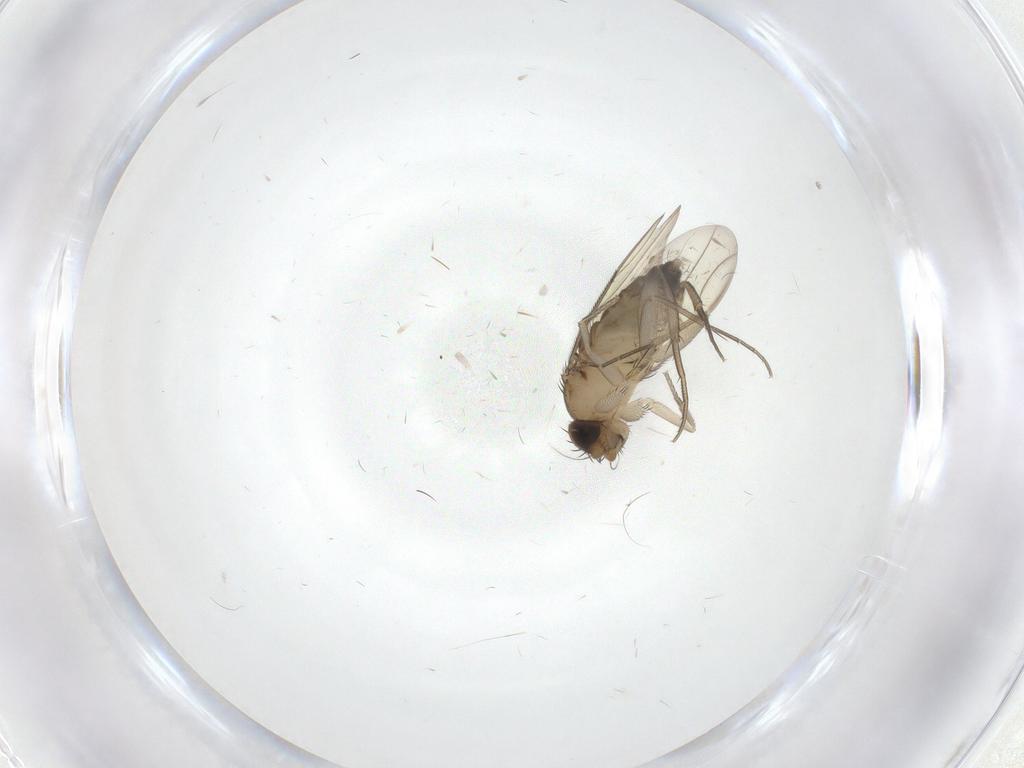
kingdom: Animalia
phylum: Arthropoda
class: Insecta
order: Diptera
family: Phoridae
